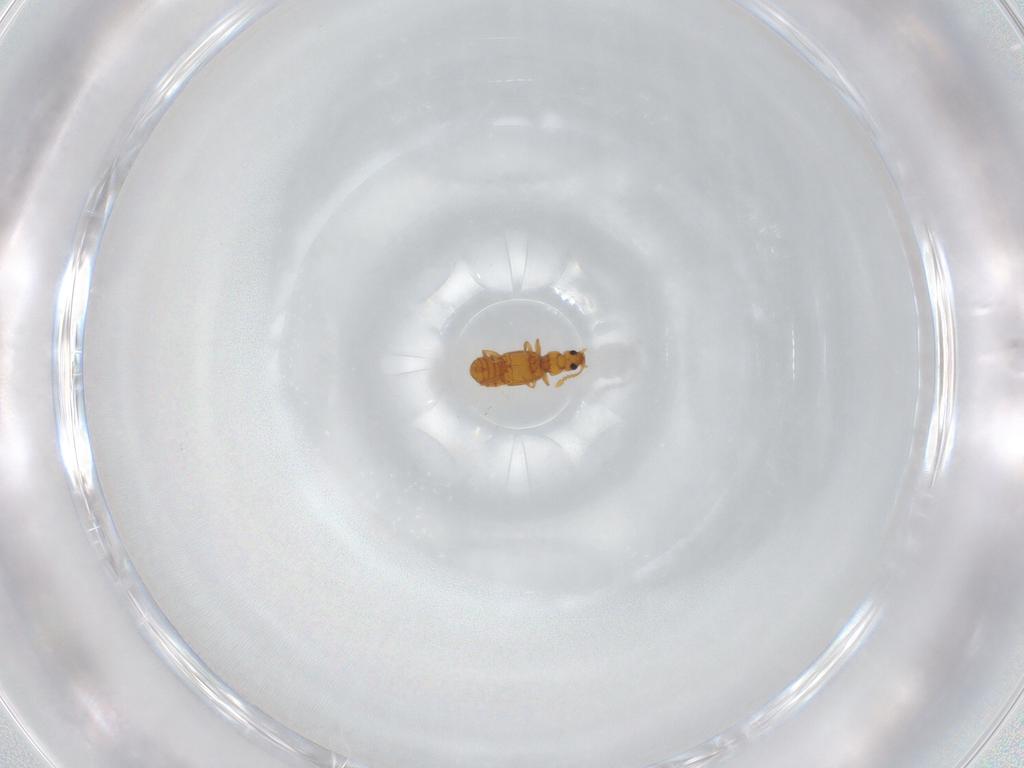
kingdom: Animalia
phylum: Arthropoda
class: Insecta
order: Coleoptera
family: Staphylinidae
